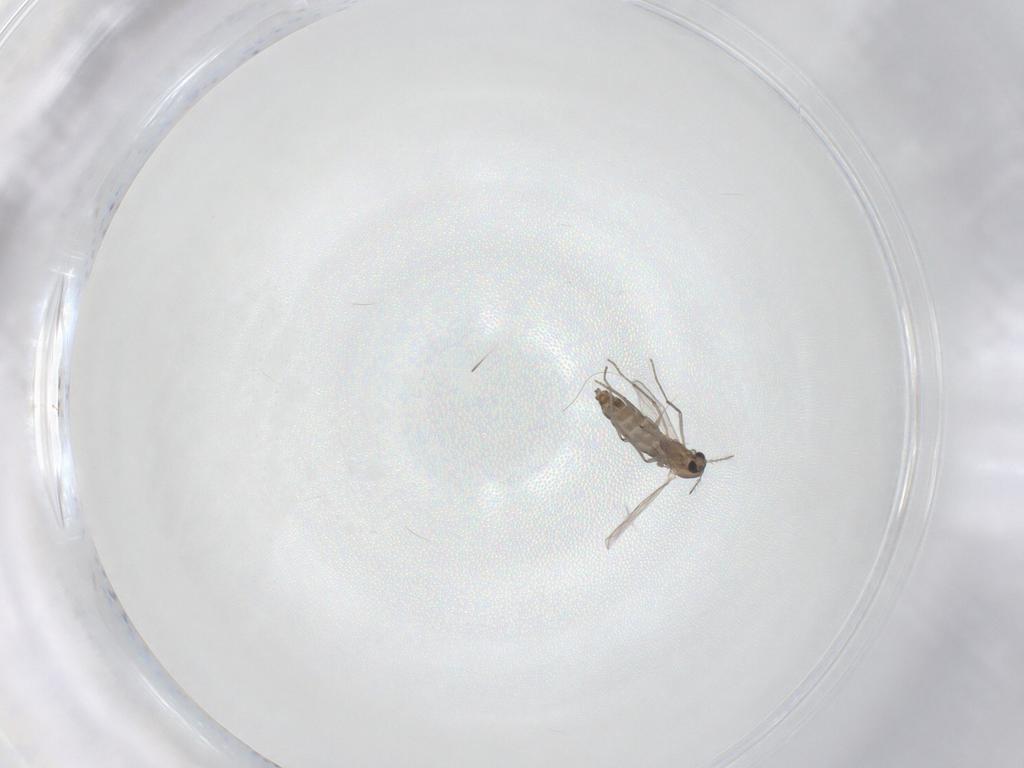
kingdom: Animalia
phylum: Arthropoda
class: Insecta
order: Diptera
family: Chironomidae
